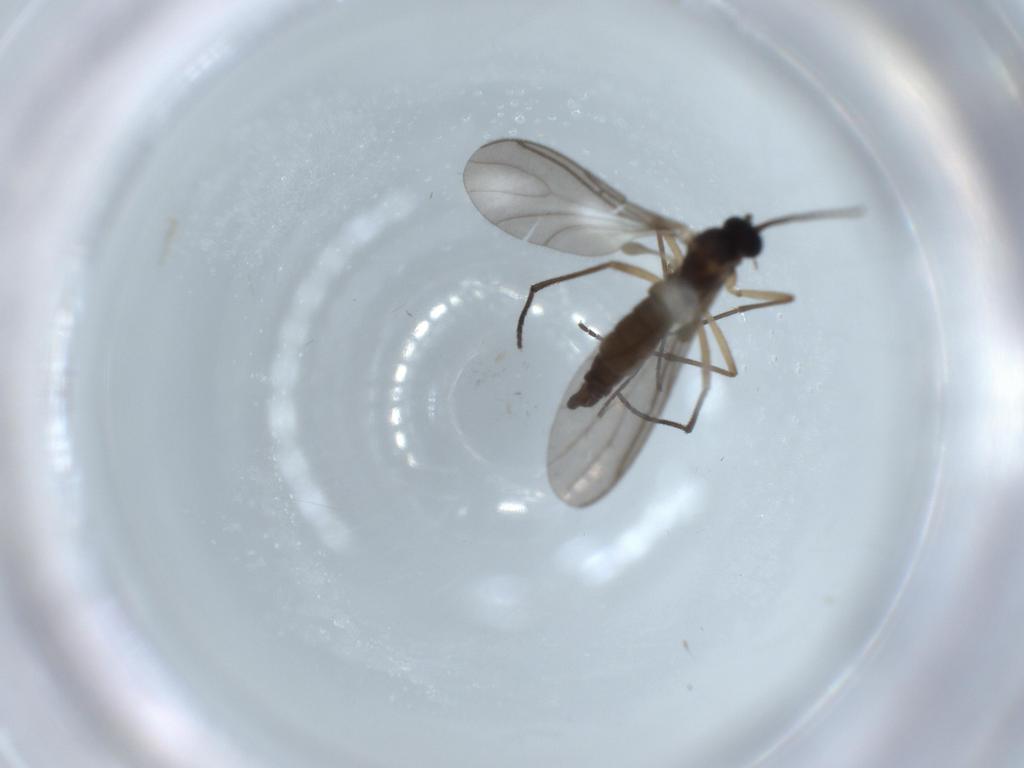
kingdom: Animalia
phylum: Arthropoda
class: Insecta
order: Diptera
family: Sciaridae
